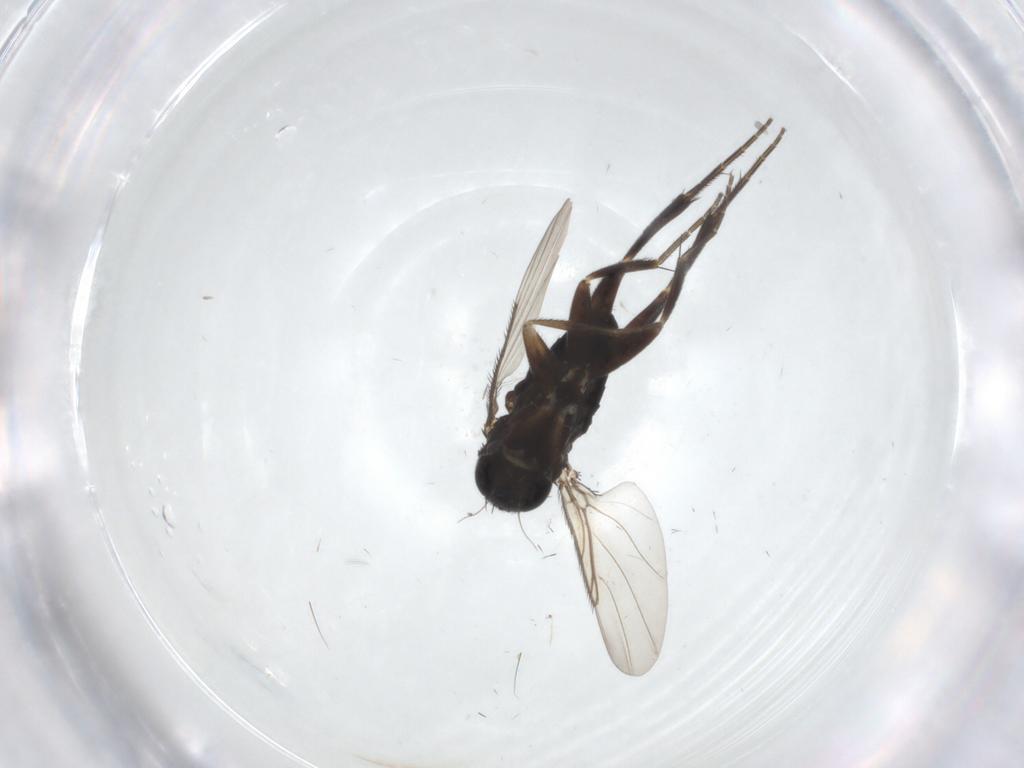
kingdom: Animalia
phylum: Arthropoda
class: Insecta
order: Diptera
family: Phoridae
